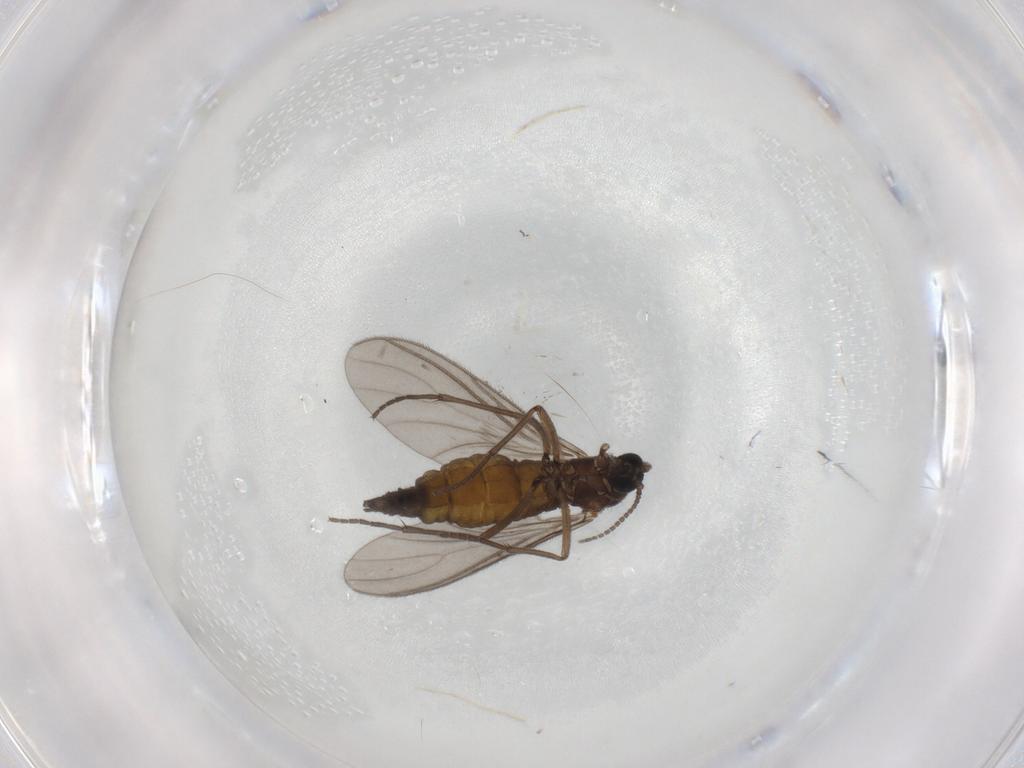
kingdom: Animalia
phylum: Arthropoda
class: Insecta
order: Diptera
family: Sciaridae
